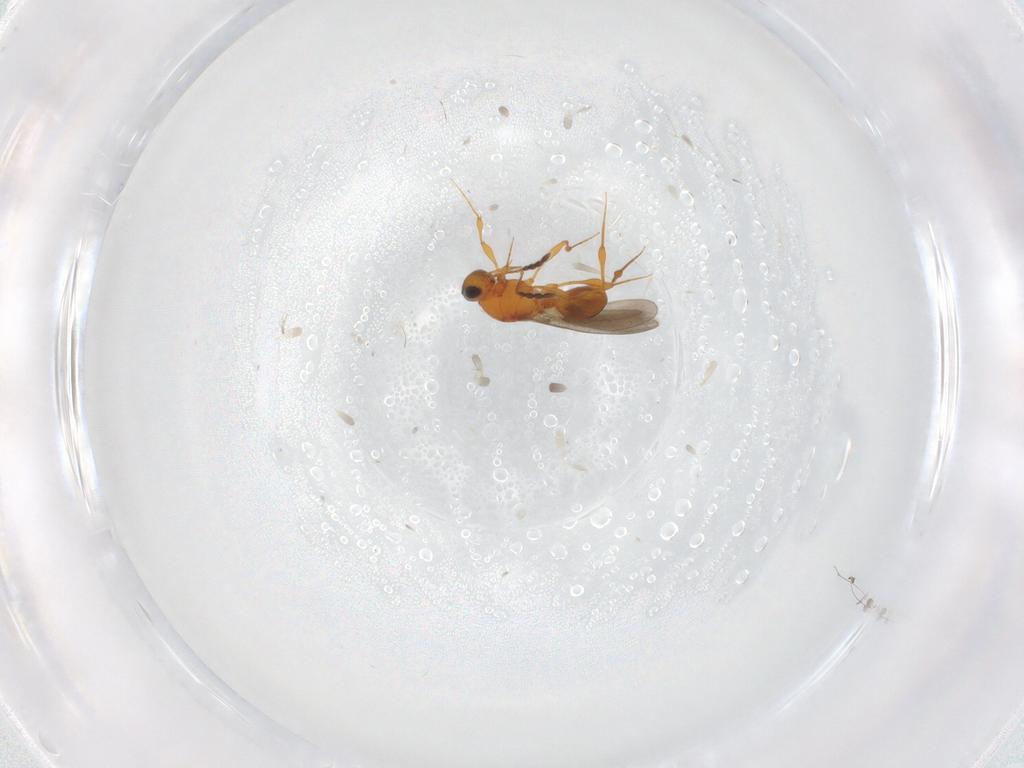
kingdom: Animalia
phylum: Arthropoda
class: Insecta
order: Hymenoptera
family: Platygastridae
